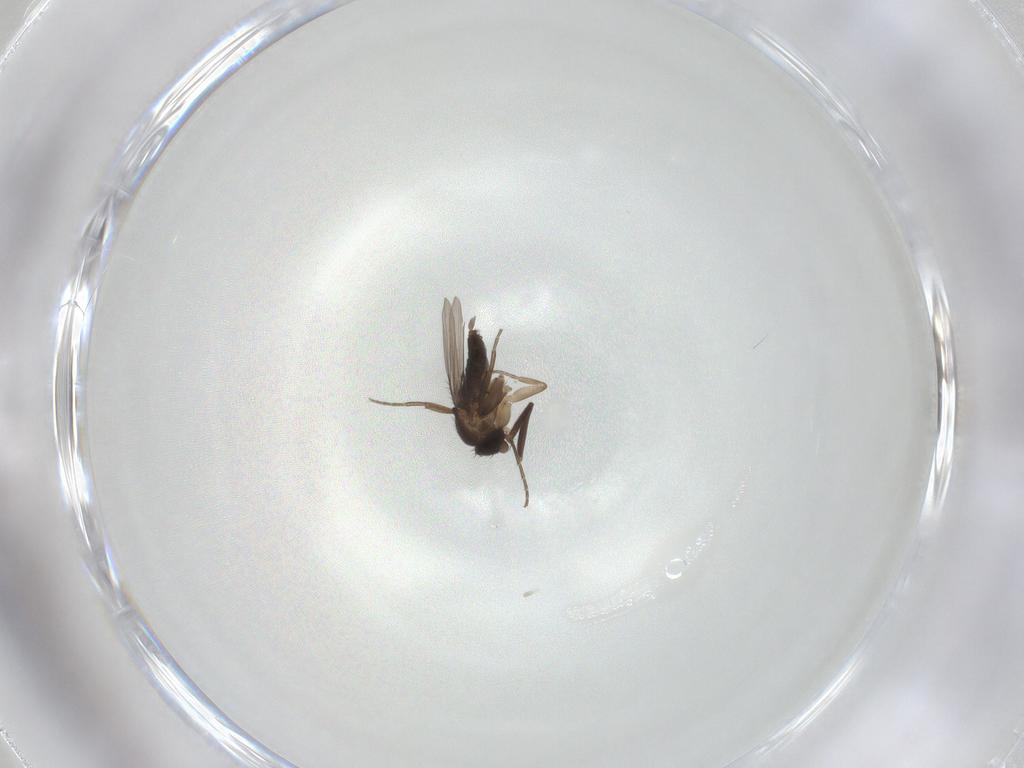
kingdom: Animalia
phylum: Arthropoda
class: Insecta
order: Diptera
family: Phoridae
